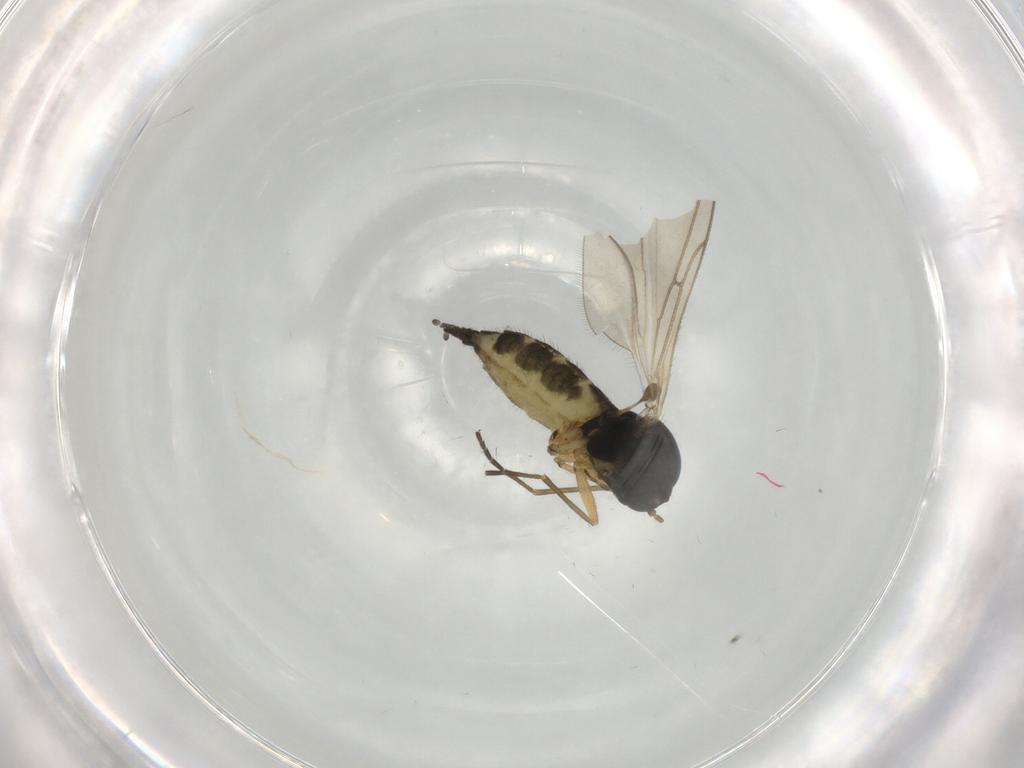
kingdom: Animalia
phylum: Arthropoda
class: Insecta
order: Diptera
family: Sciaridae
